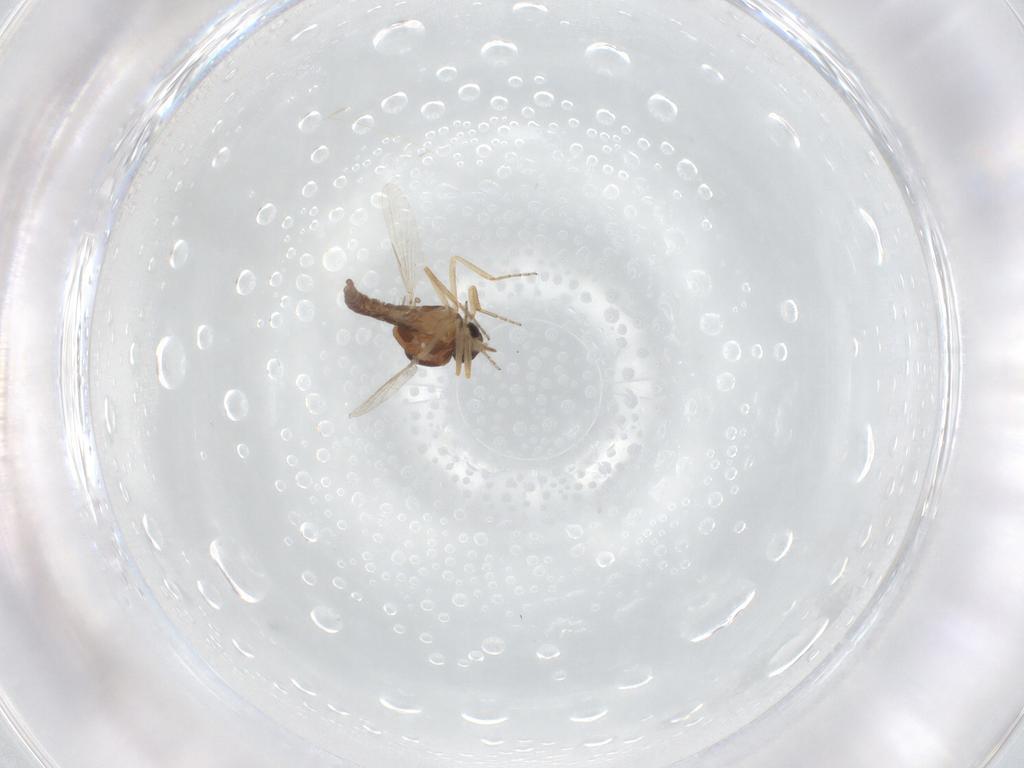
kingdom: Animalia
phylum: Arthropoda
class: Insecta
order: Diptera
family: Ceratopogonidae
